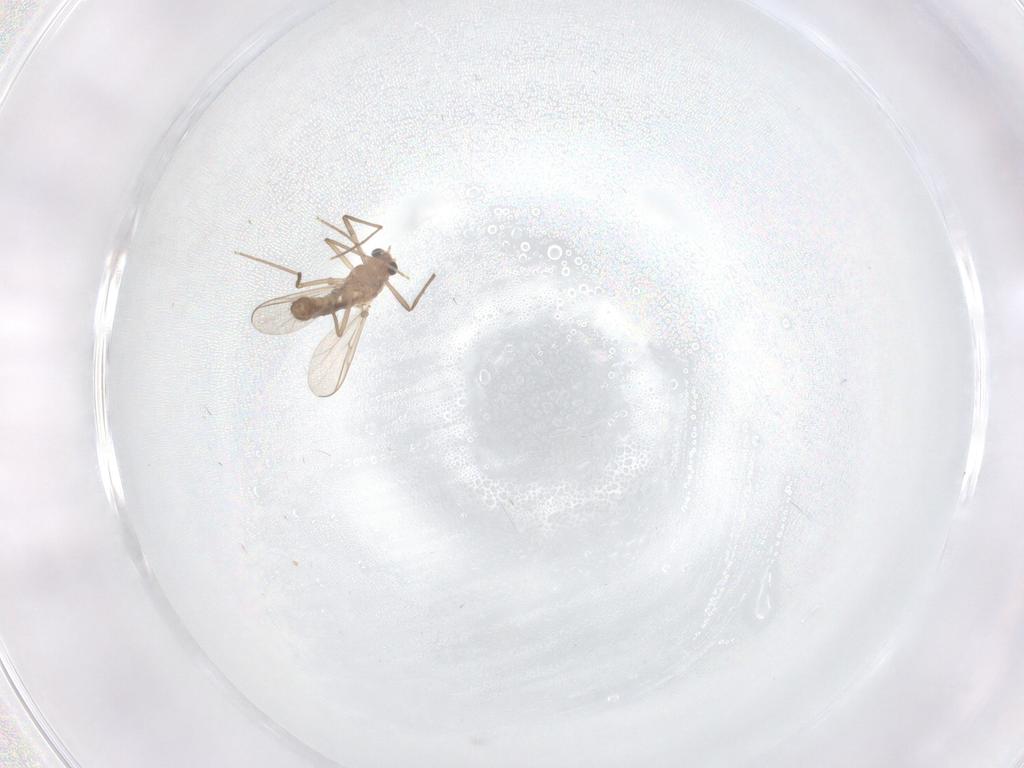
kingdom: Animalia
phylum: Arthropoda
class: Insecta
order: Diptera
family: Chironomidae
